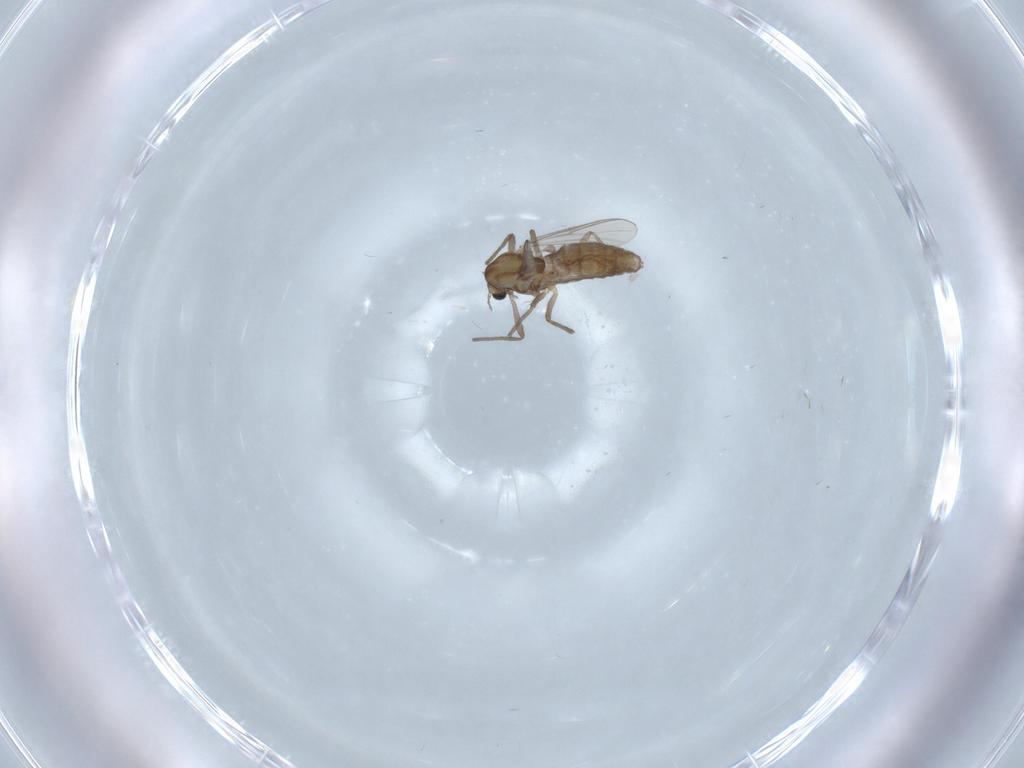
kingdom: Animalia
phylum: Arthropoda
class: Insecta
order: Diptera
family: Chironomidae
